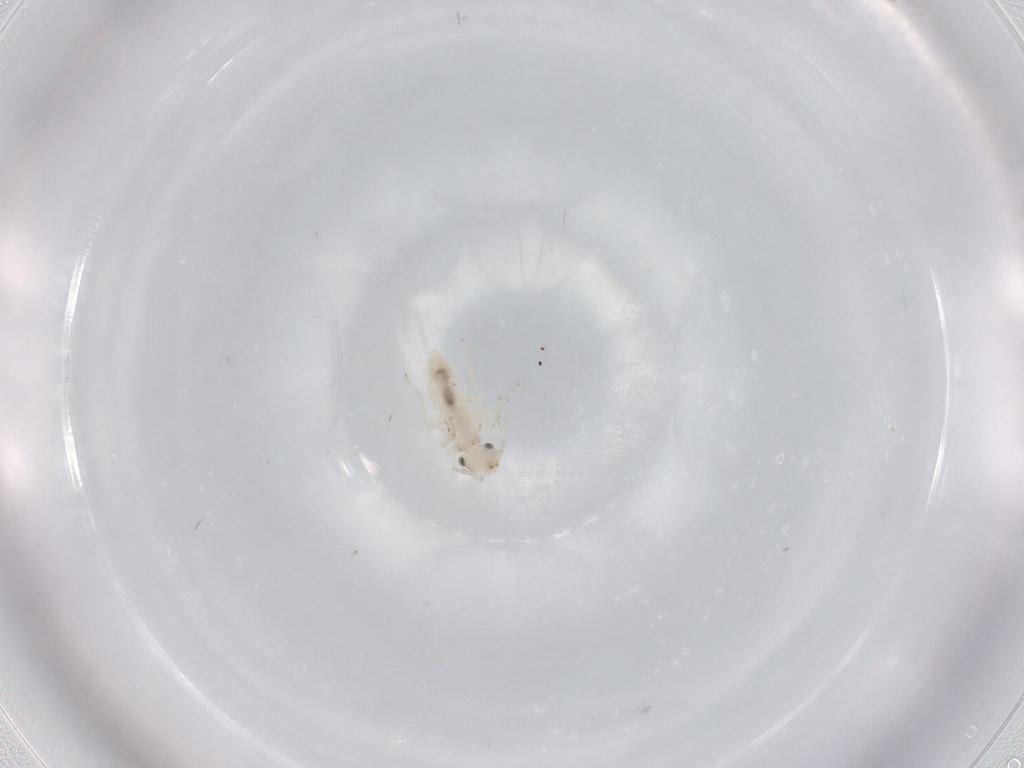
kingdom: Animalia
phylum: Arthropoda
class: Insecta
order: Psocodea
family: Lepidopsocidae
